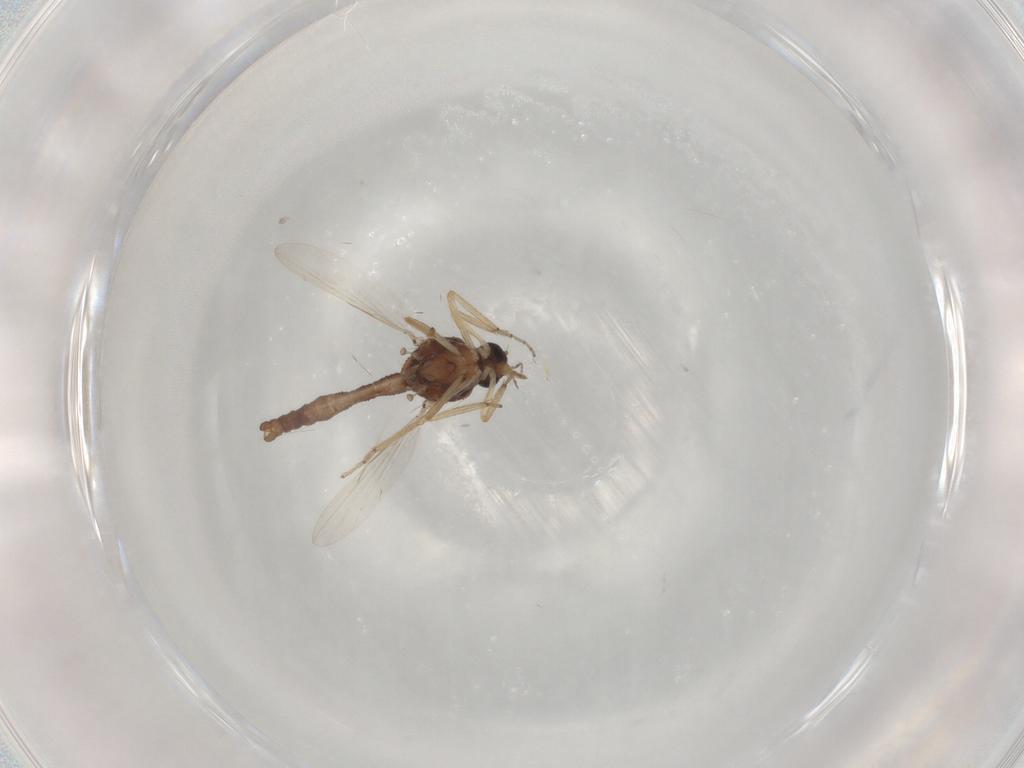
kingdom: Animalia
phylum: Arthropoda
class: Insecta
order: Diptera
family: Ceratopogonidae
